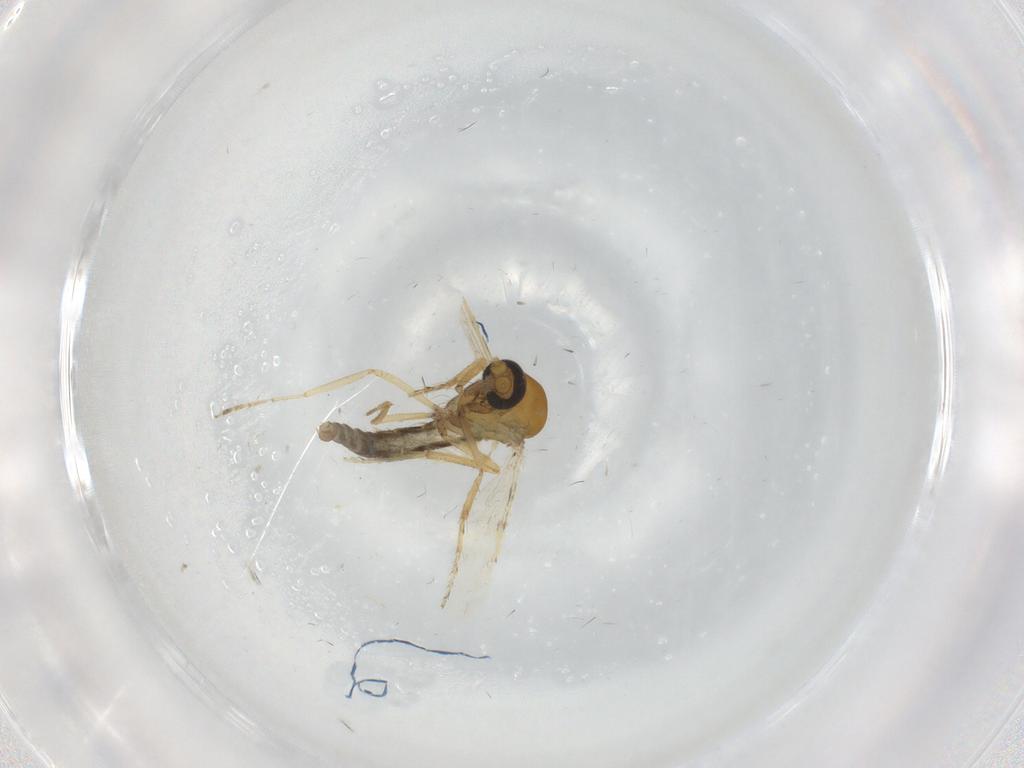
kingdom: Animalia
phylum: Arthropoda
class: Insecta
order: Diptera
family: Ceratopogonidae
